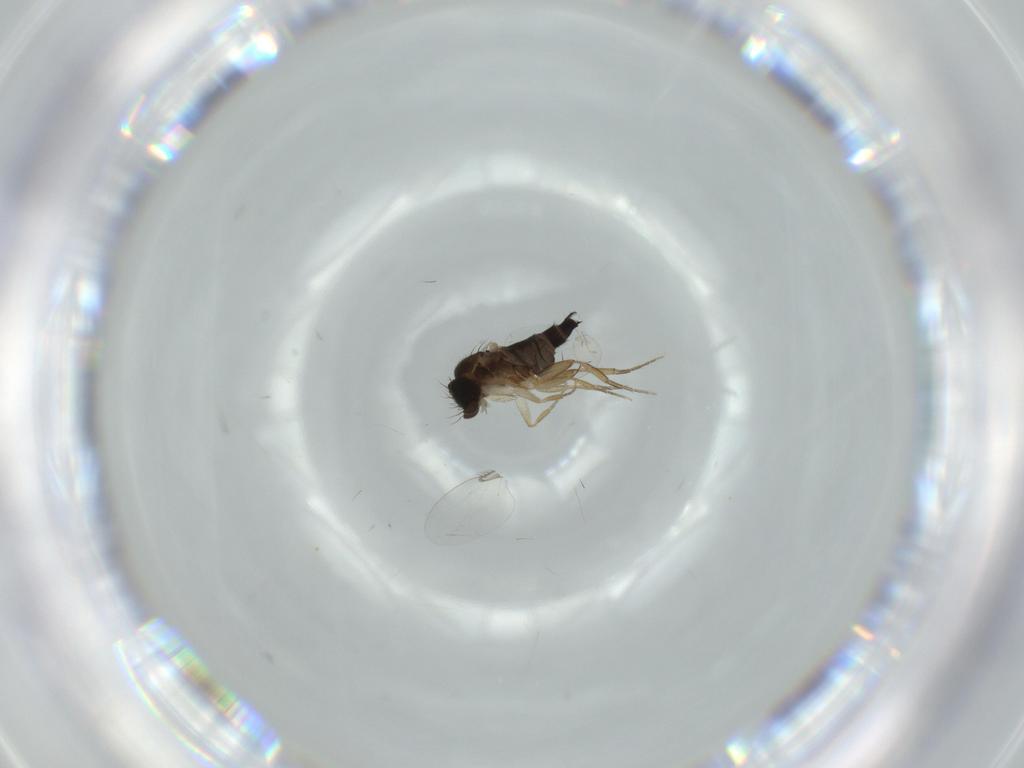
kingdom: Animalia
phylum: Arthropoda
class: Insecta
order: Diptera
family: Phoridae
